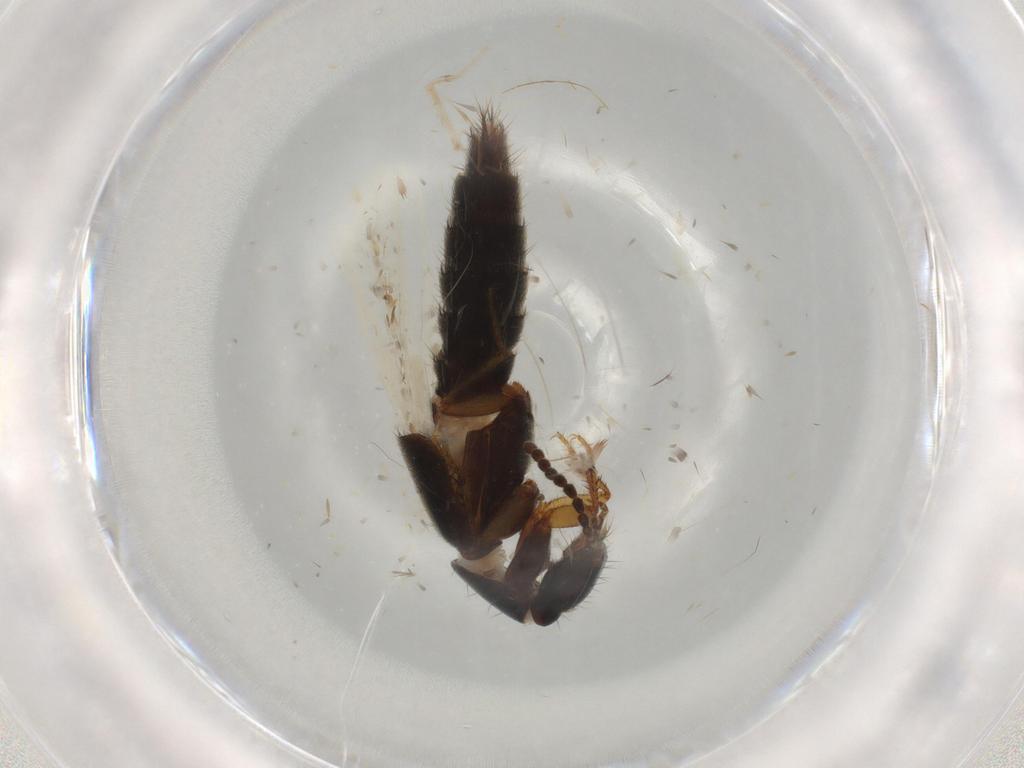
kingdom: Animalia
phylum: Arthropoda
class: Insecta
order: Coleoptera
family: Staphylinidae
